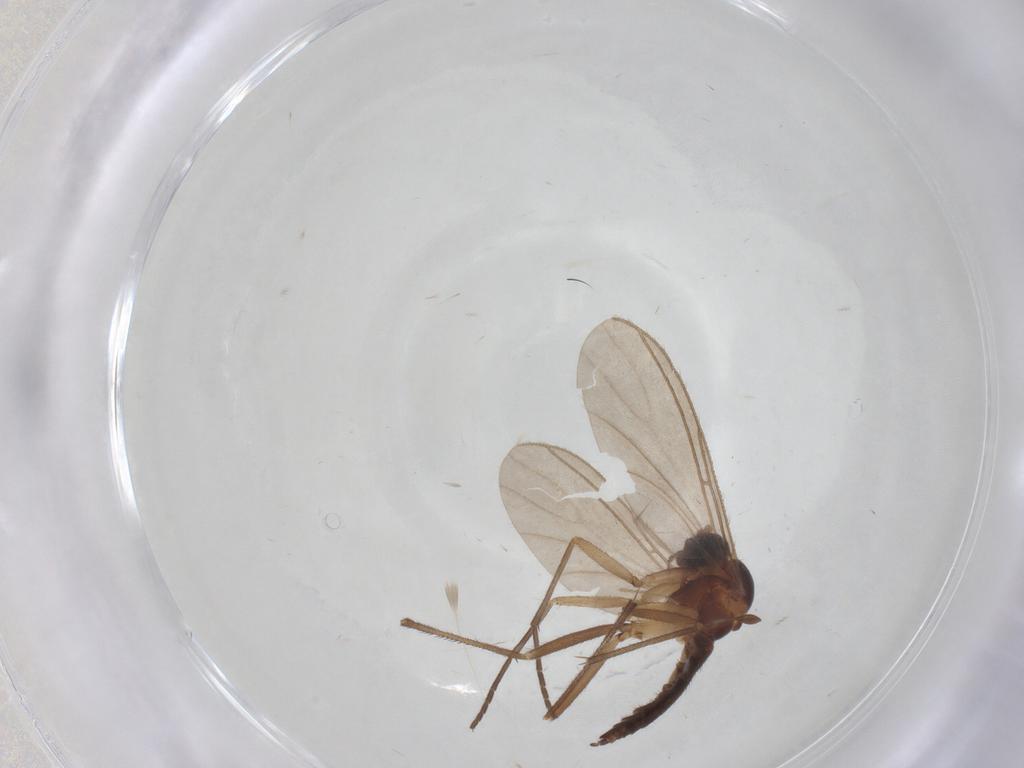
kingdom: Animalia
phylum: Arthropoda
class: Insecta
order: Diptera
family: Sciaridae
